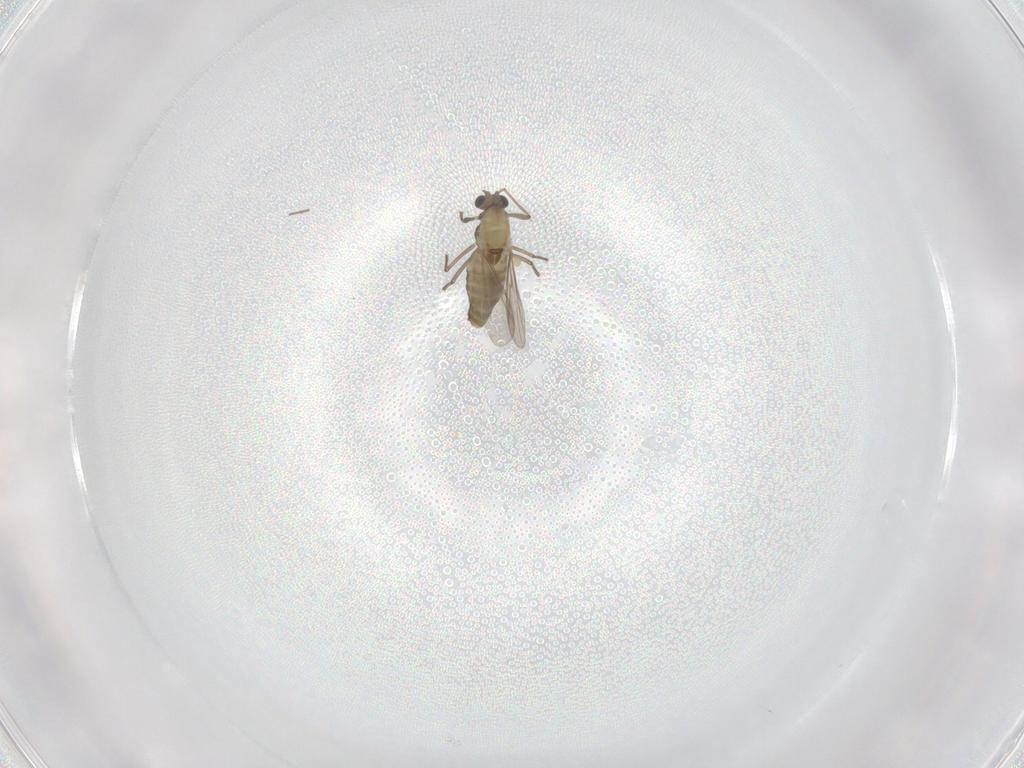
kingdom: Animalia
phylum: Arthropoda
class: Insecta
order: Diptera
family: Chironomidae
